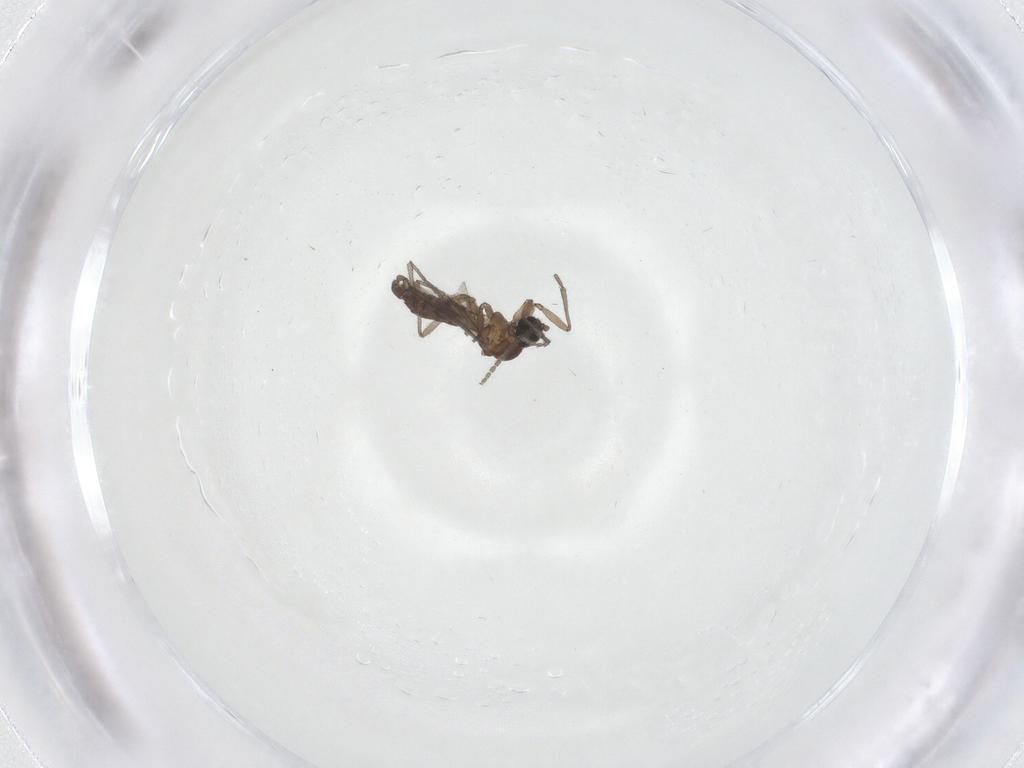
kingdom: Animalia
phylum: Arthropoda
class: Insecta
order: Diptera
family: Sciaridae
